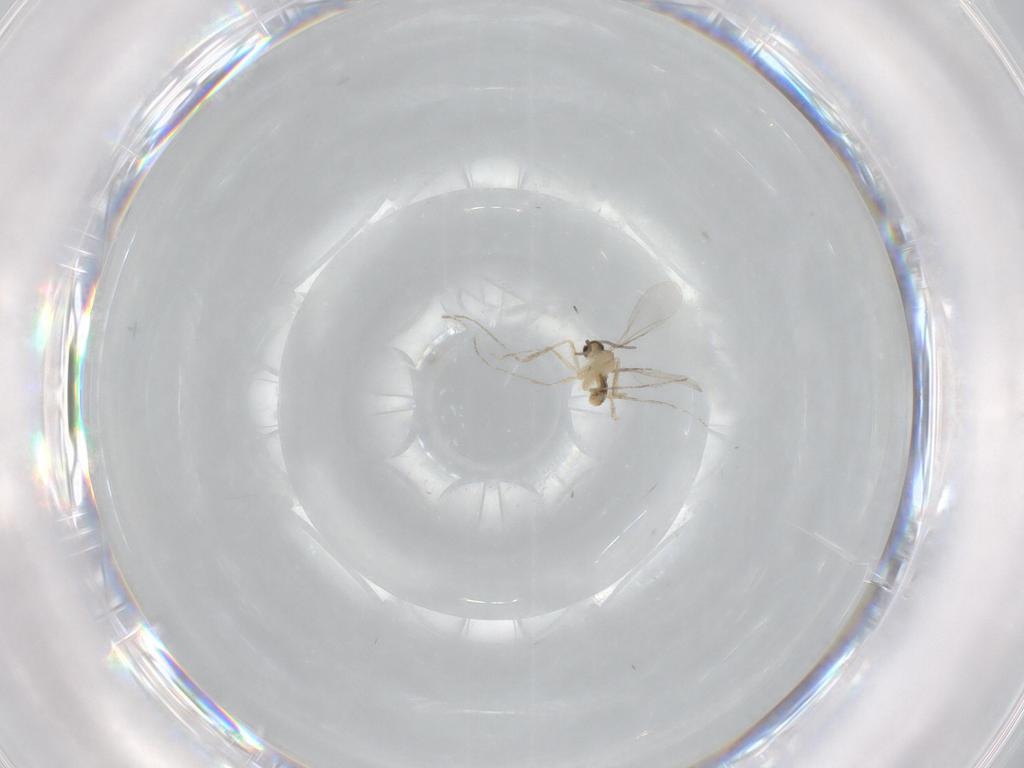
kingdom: Animalia
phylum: Arthropoda
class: Insecta
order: Diptera
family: Cecidomyiidae
